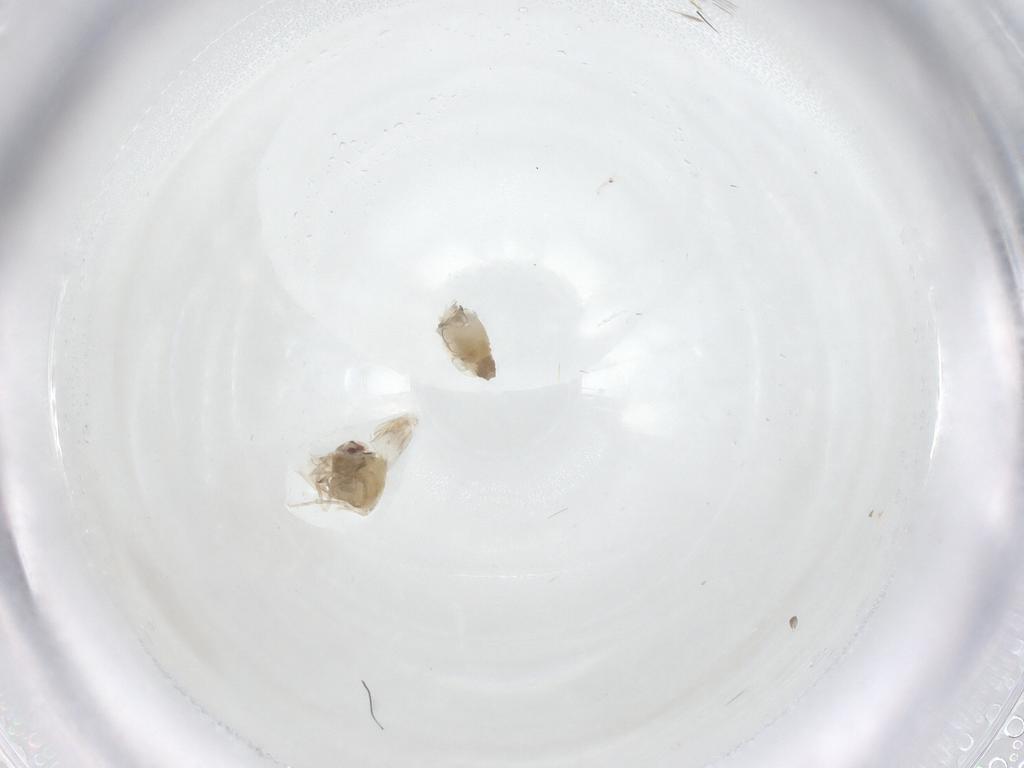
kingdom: Animalia
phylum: Arthropoda
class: Insecta
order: Hemiptera
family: Aleyrodidae
